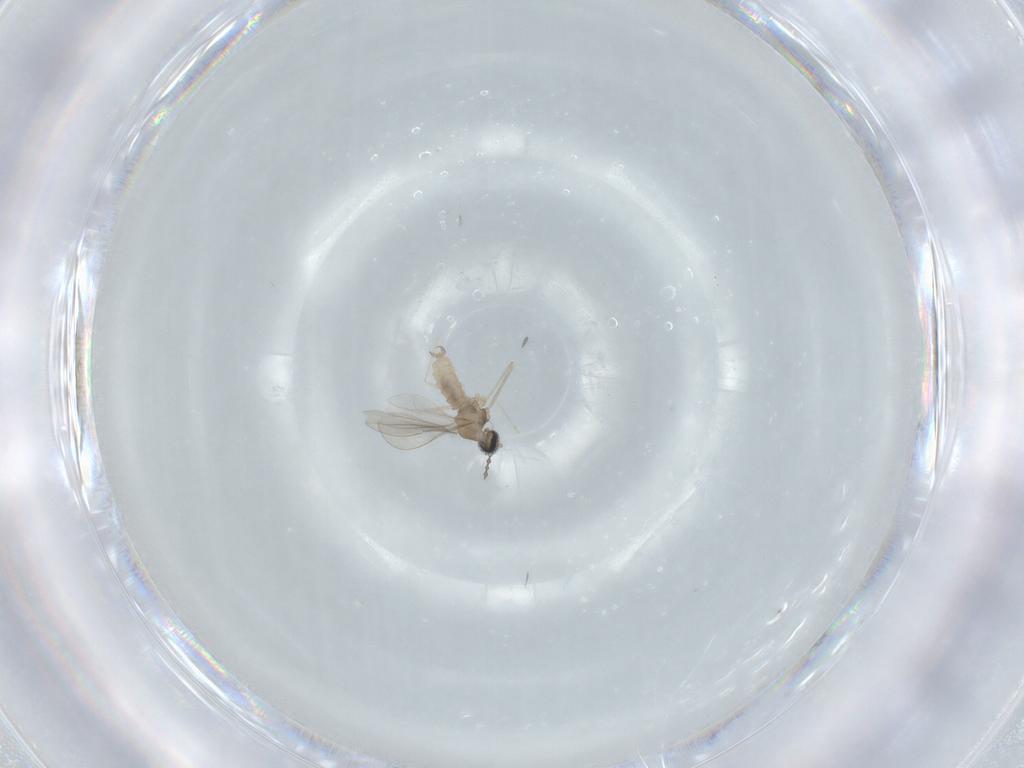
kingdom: Animalia
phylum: Arthropoda
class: Insecta
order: Diptera
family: Cecidomyiidae
